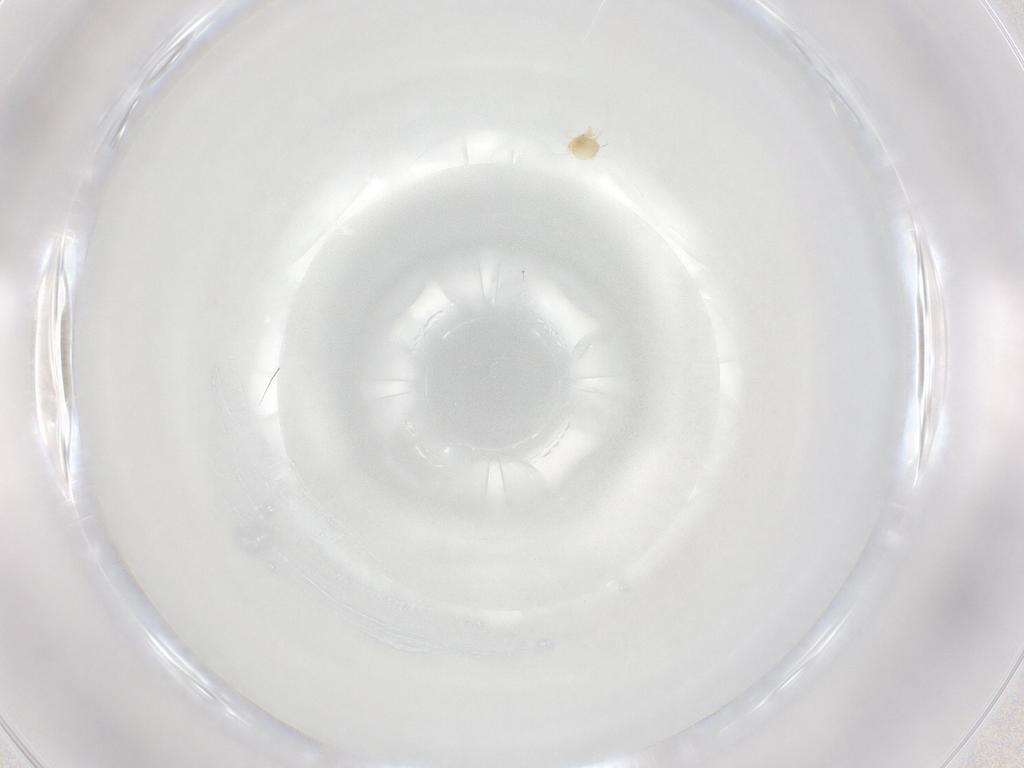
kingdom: Animalia
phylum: Arthropoda
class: Arachnida
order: Trombidiformes
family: Eupodidae
